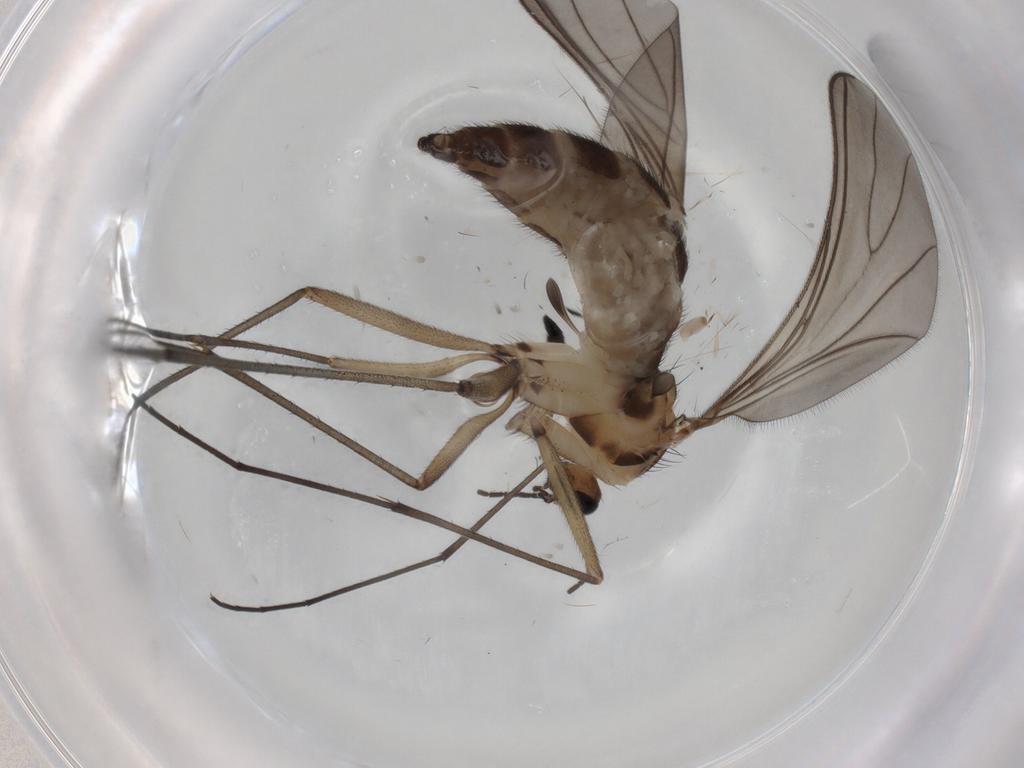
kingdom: Animalia
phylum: Arthropoda
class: Insecta
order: Diptera
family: Sciaridae
